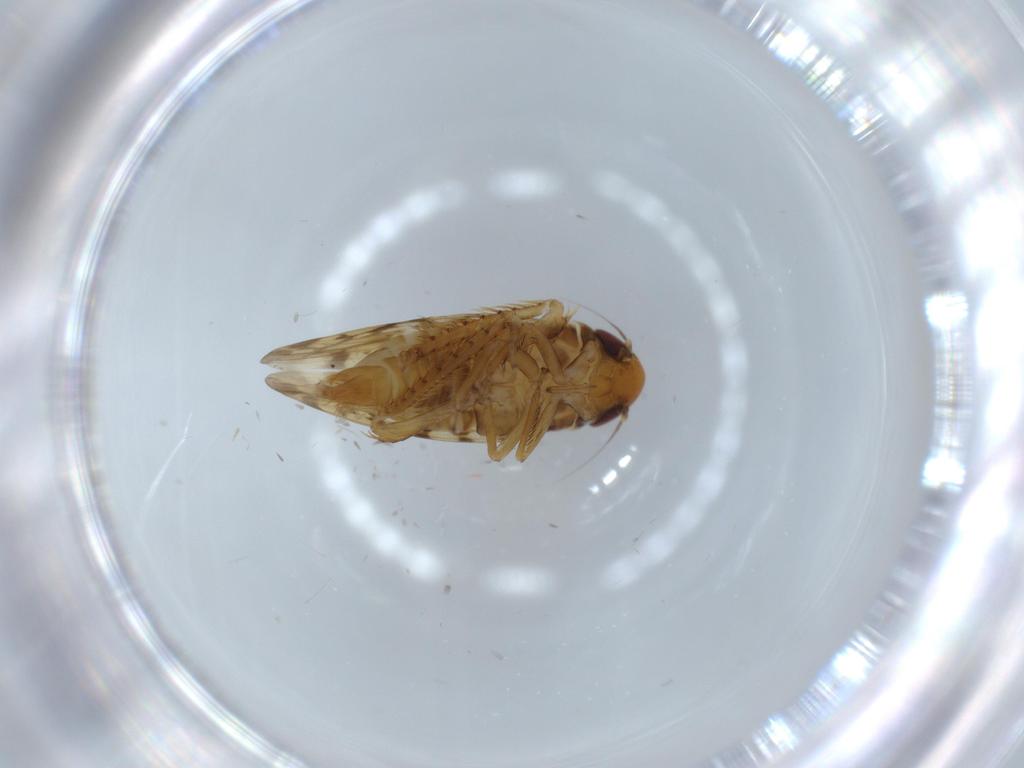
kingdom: Animalia
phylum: Arthropoda
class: Insecta
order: Hemiptera
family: Cicadellidae
